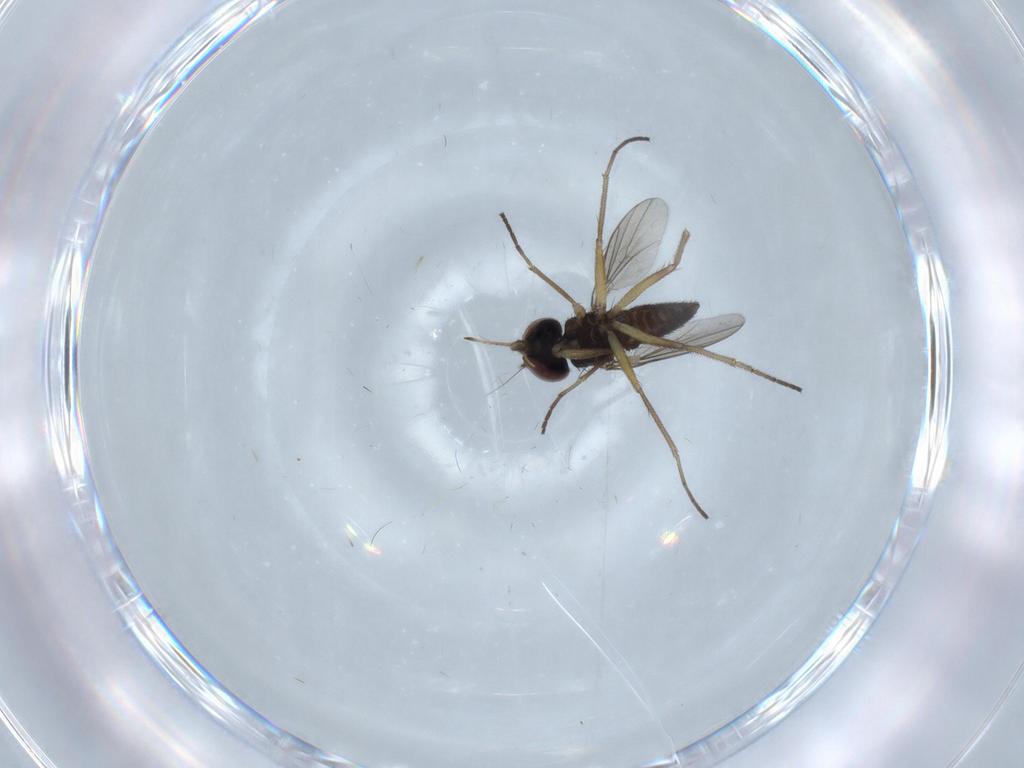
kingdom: Animalia
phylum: Arthropoda
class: Insecta
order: Diptera
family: Dolichopodidae
